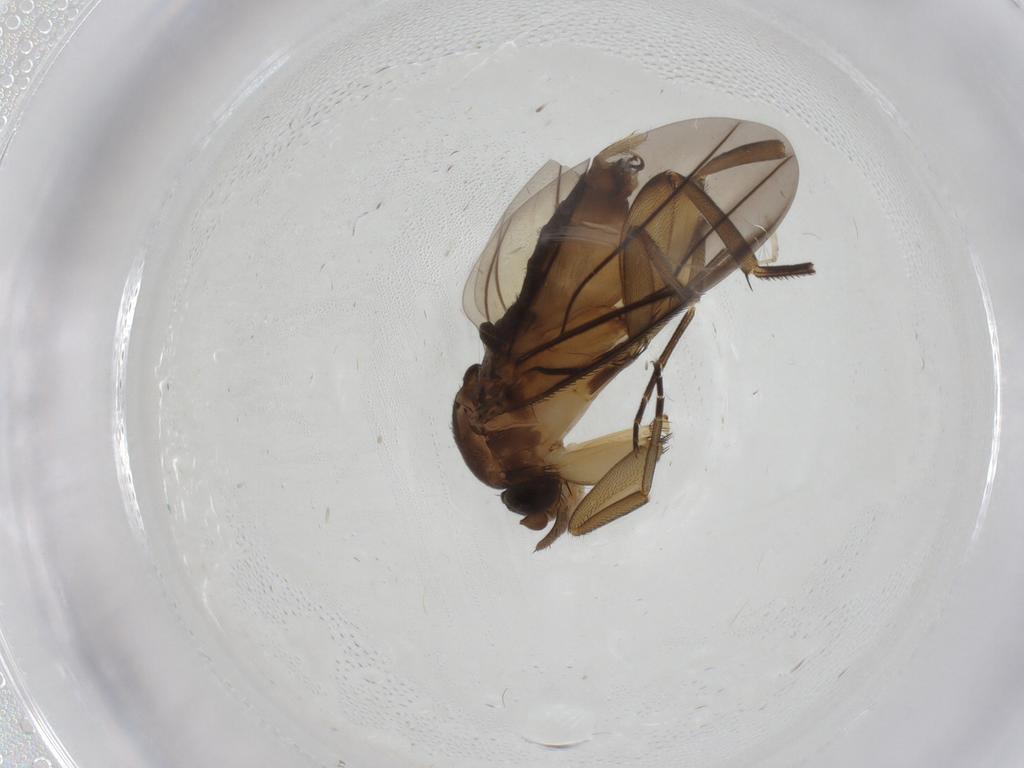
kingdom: Animalia
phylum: Arthropoda
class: Insecta
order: Diptera
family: Phoridae
